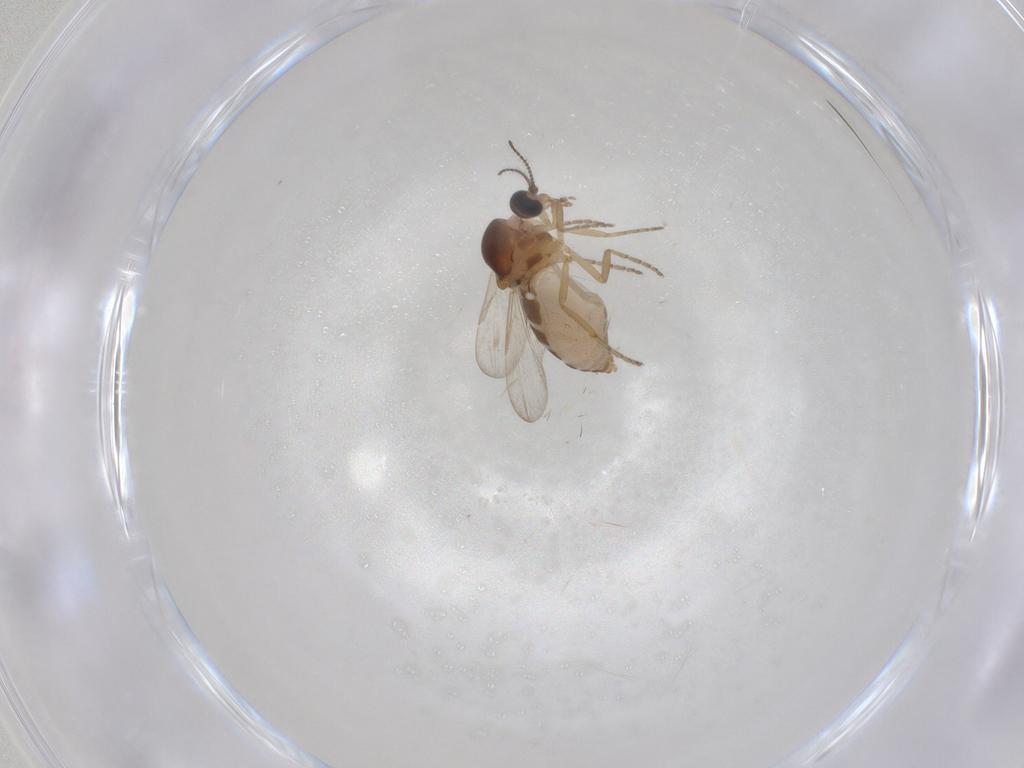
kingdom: Animalia
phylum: Arthropoda
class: Insecta
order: Diptera
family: Ceratopogonidae
